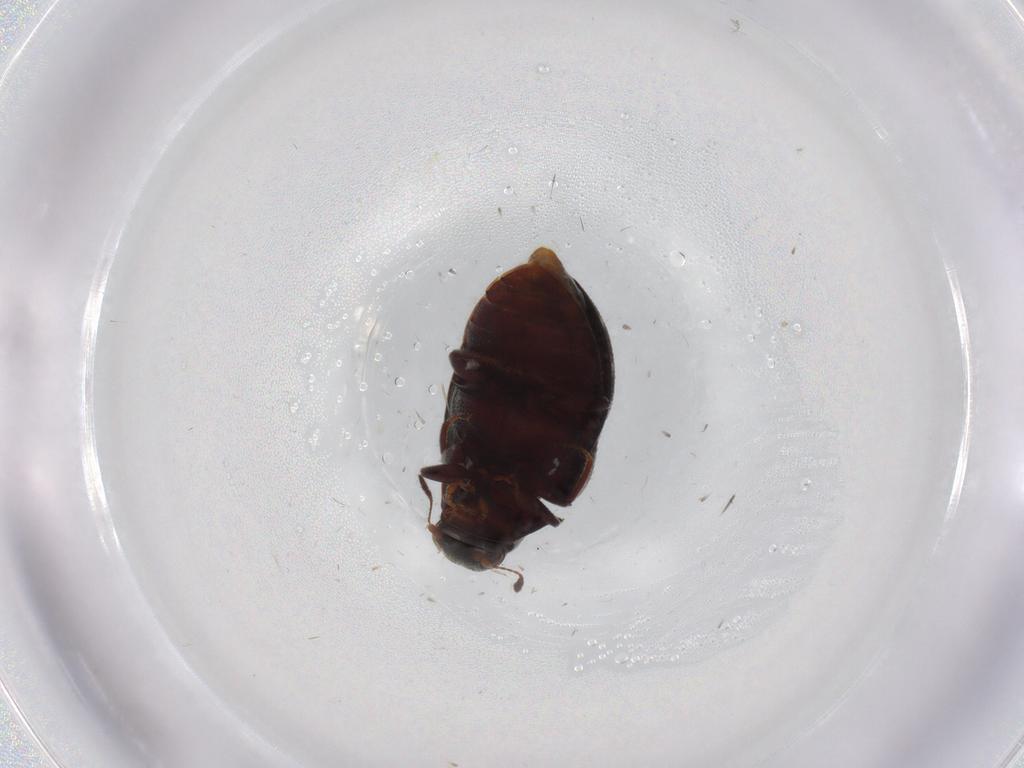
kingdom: Animalia
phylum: Arthropoda
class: Insecta
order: Coleoptera
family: Limnichidae
